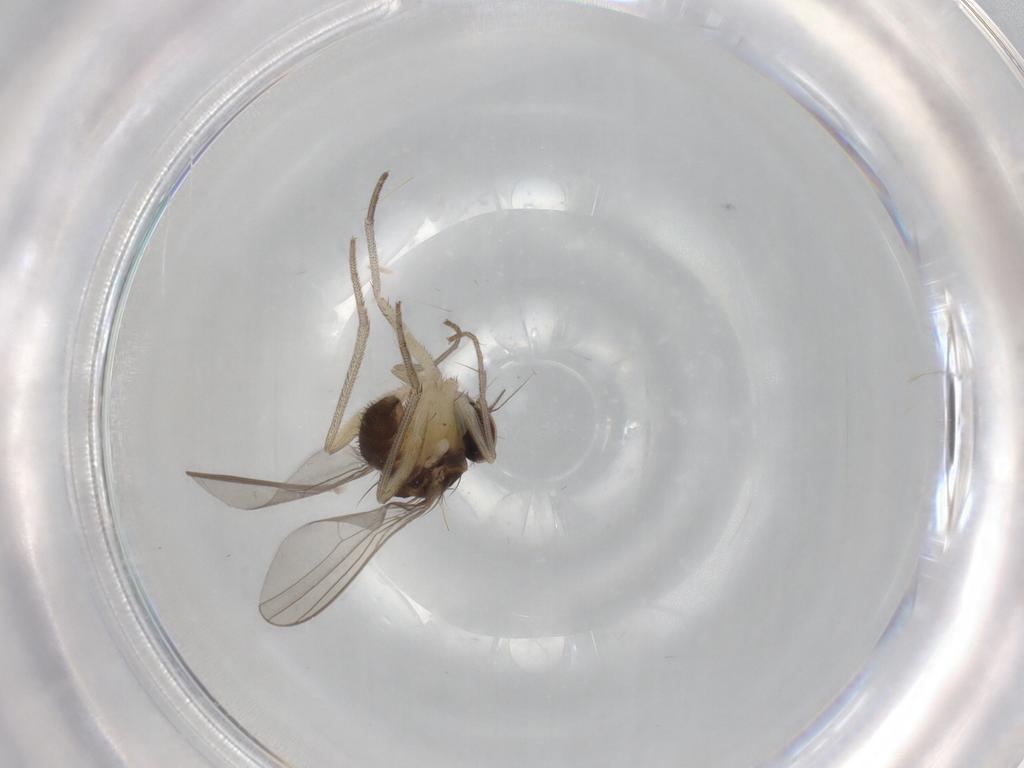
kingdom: Animalia
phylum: Arthropoda
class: Insecta
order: Diptera
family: Dolichopodidae
